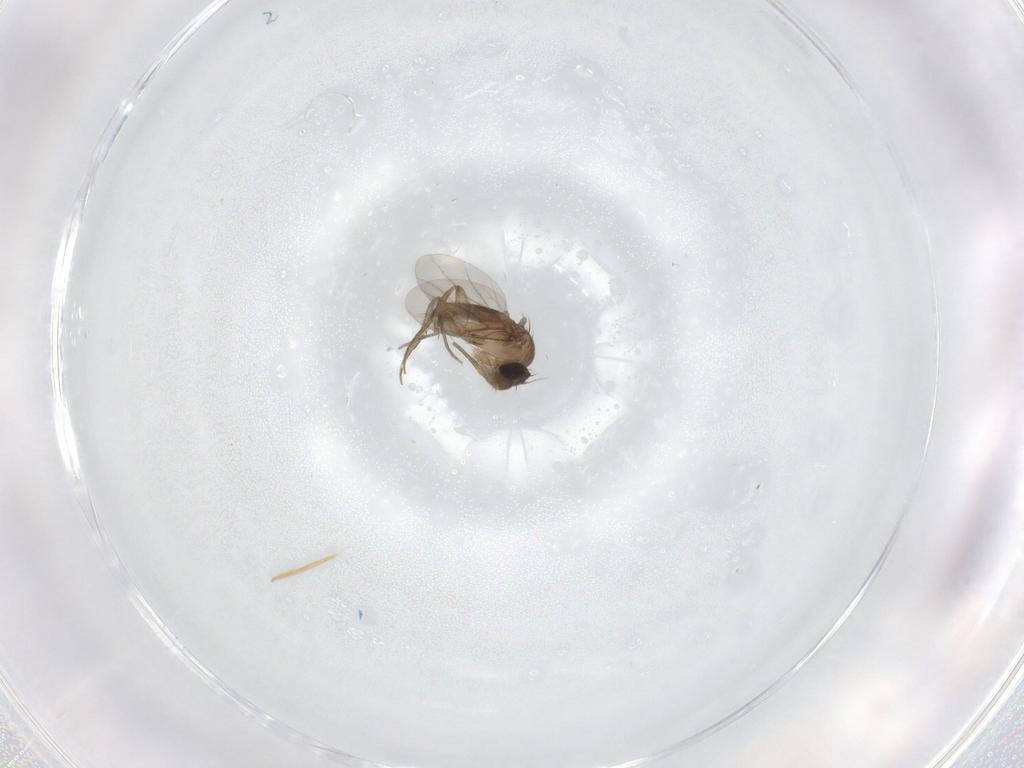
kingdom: Animalia
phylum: Arthropoda
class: Insecta
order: Diptera
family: Phoridae
